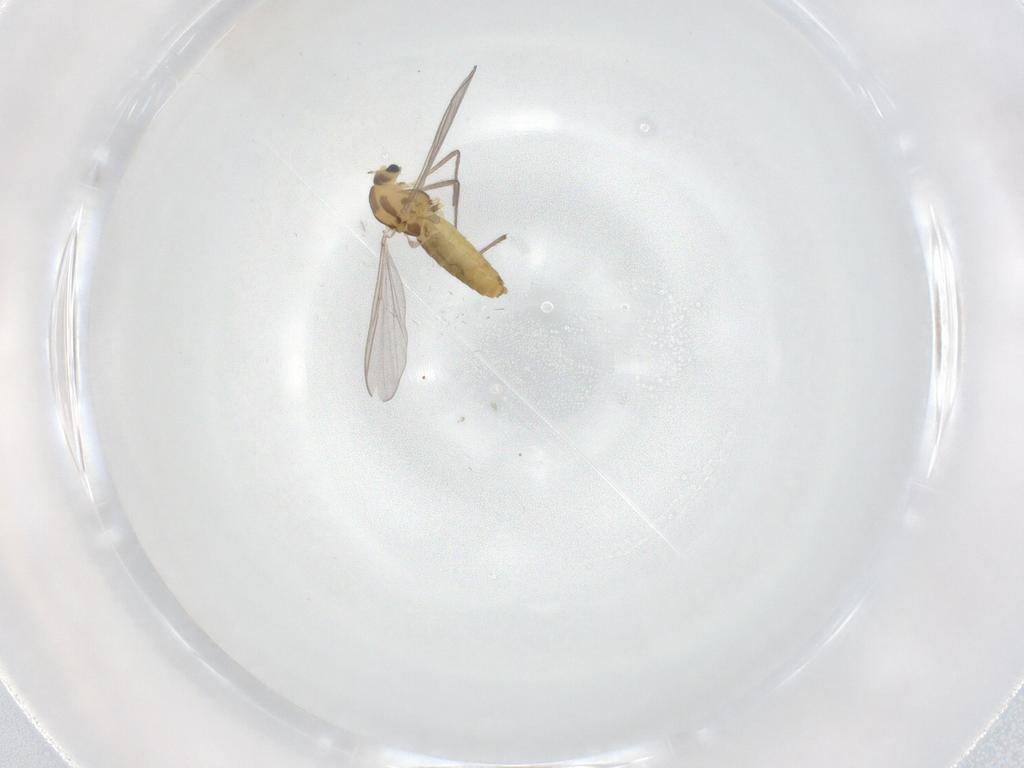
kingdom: Animalia
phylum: Arthropoda
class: Insecta
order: Diptera
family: Chironomidae
